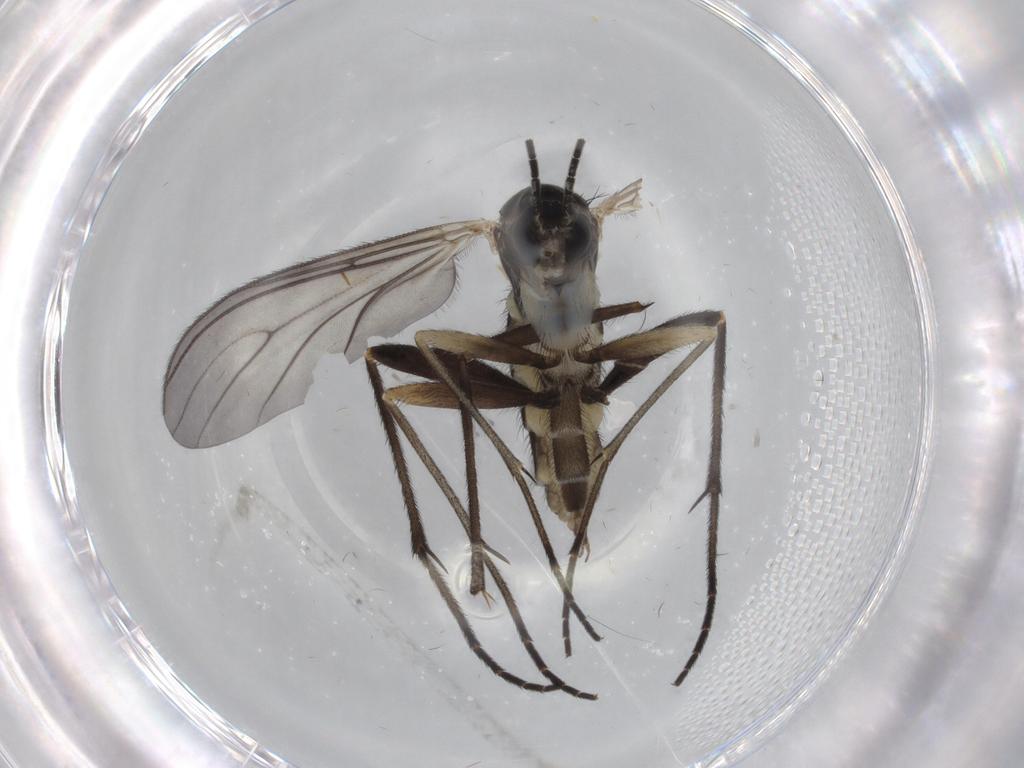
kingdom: Animalia
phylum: Arthropoda
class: Insecta
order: Diptera
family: Sciaridae
